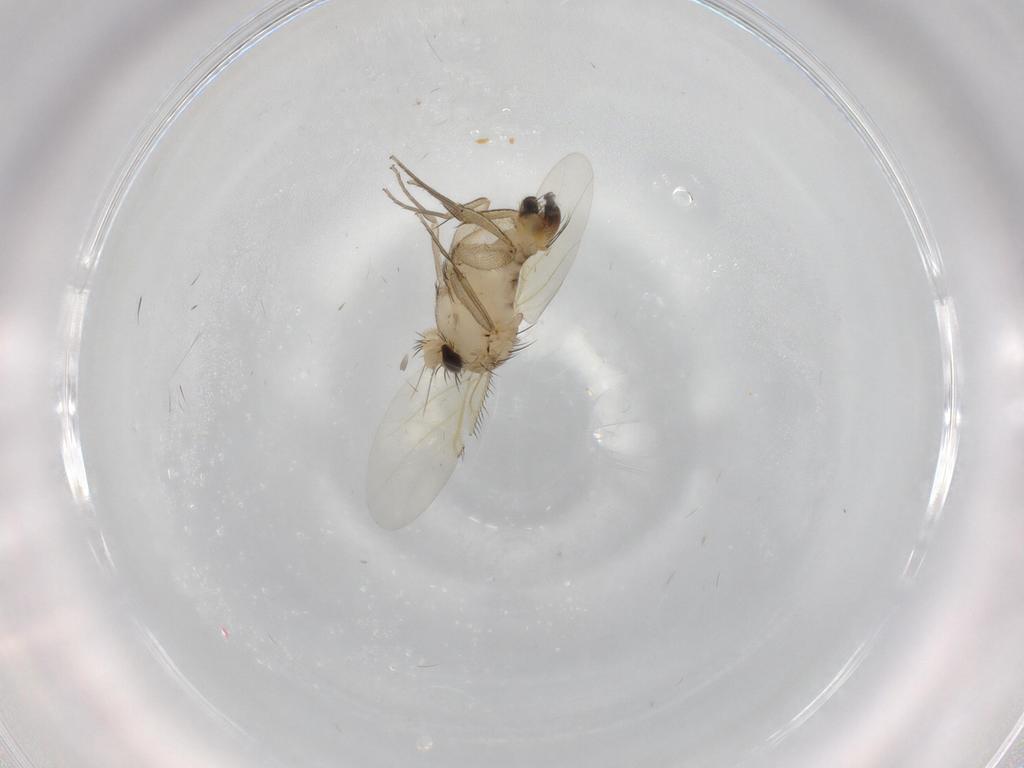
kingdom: Animalia
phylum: Arthropoda
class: Insecta
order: Diptera
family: Phoridae
